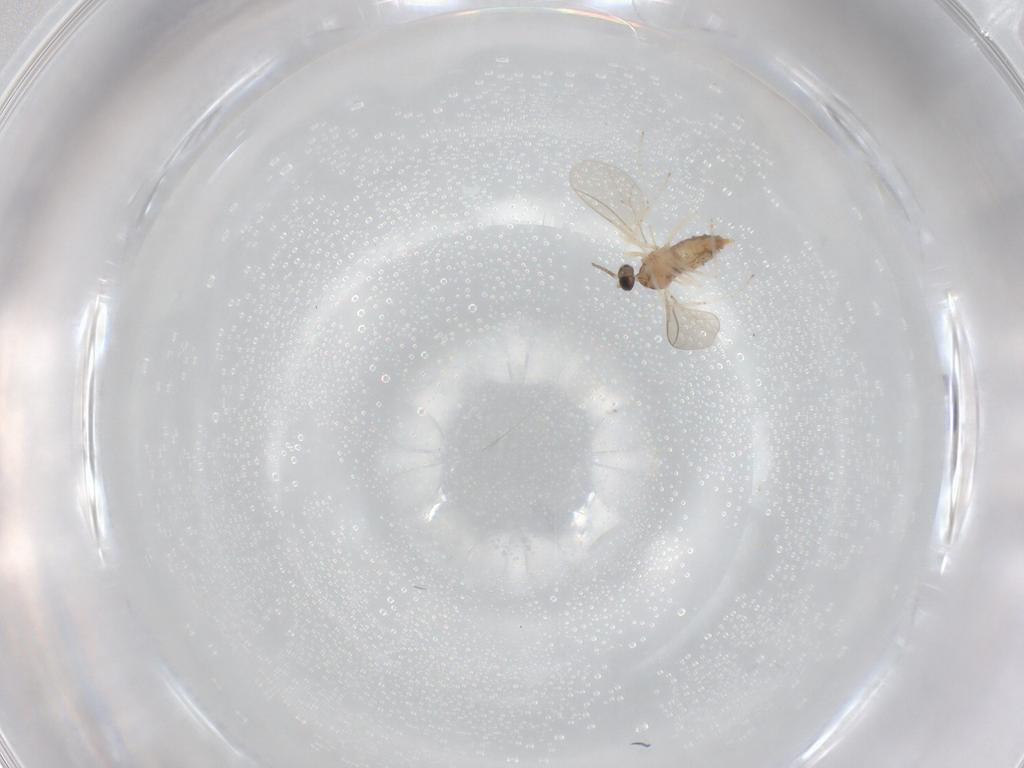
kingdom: Animalia
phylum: Arthropoda
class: Insecta
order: Diptera
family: Cecidomyiidae
